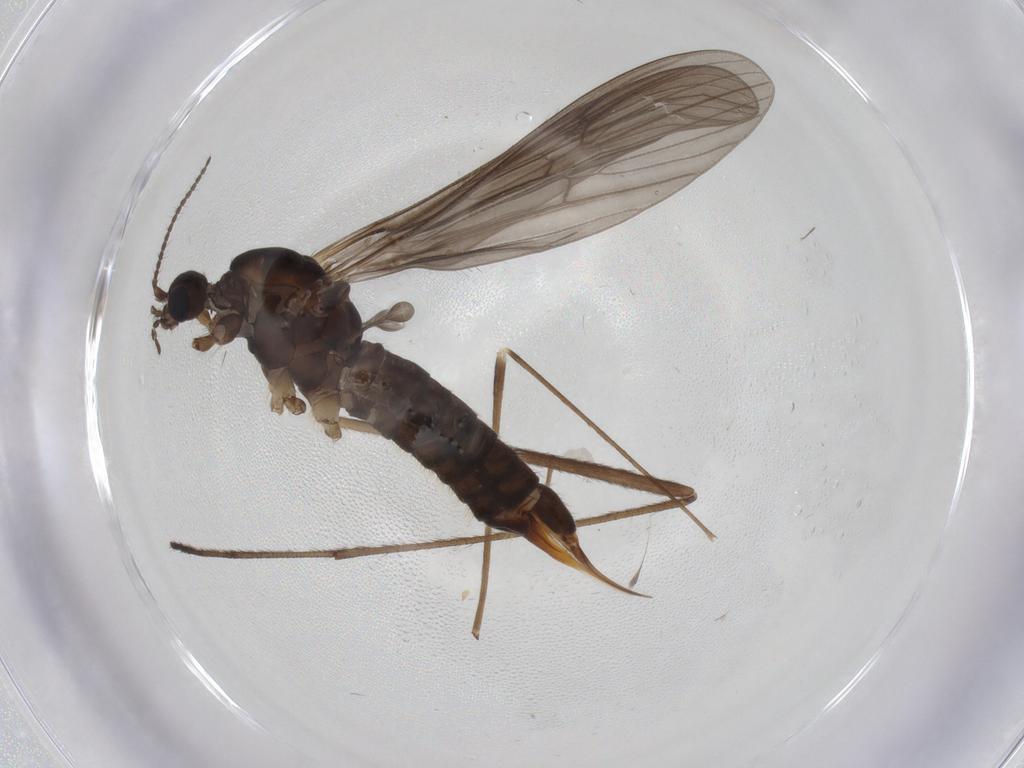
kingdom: Animalia
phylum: Arthropoda
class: Insecta
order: Diptera
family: Limoniidae
